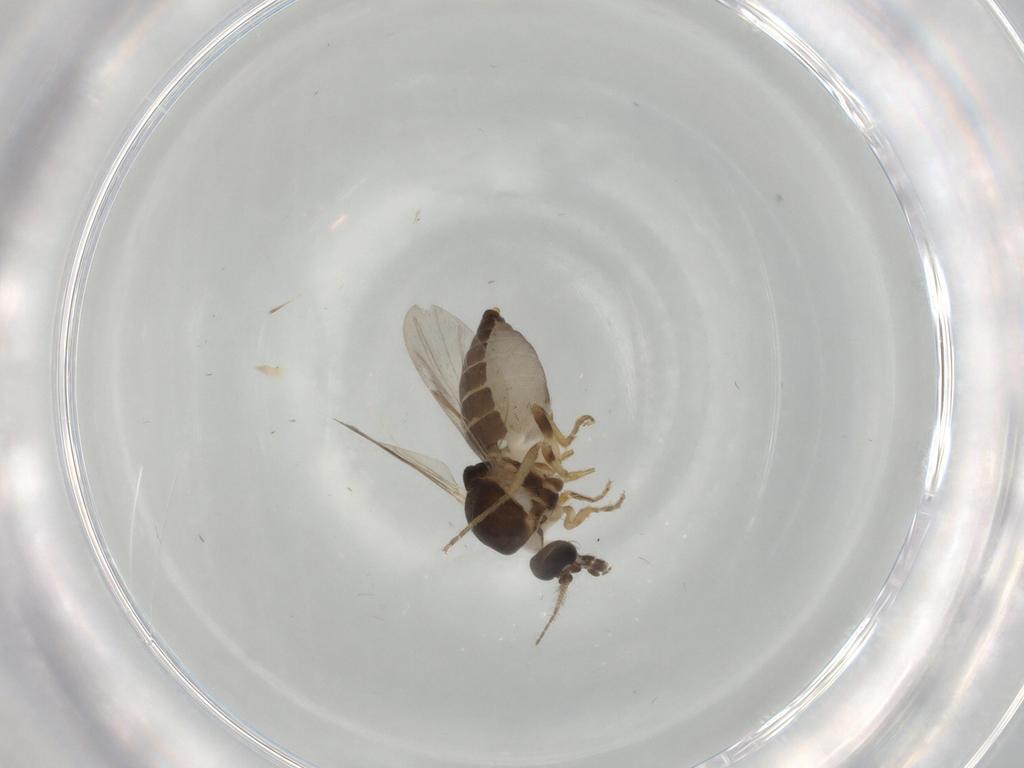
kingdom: Animalia
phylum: Arthropoda
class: Insecta
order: Diptera
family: Ceratopogonidae
